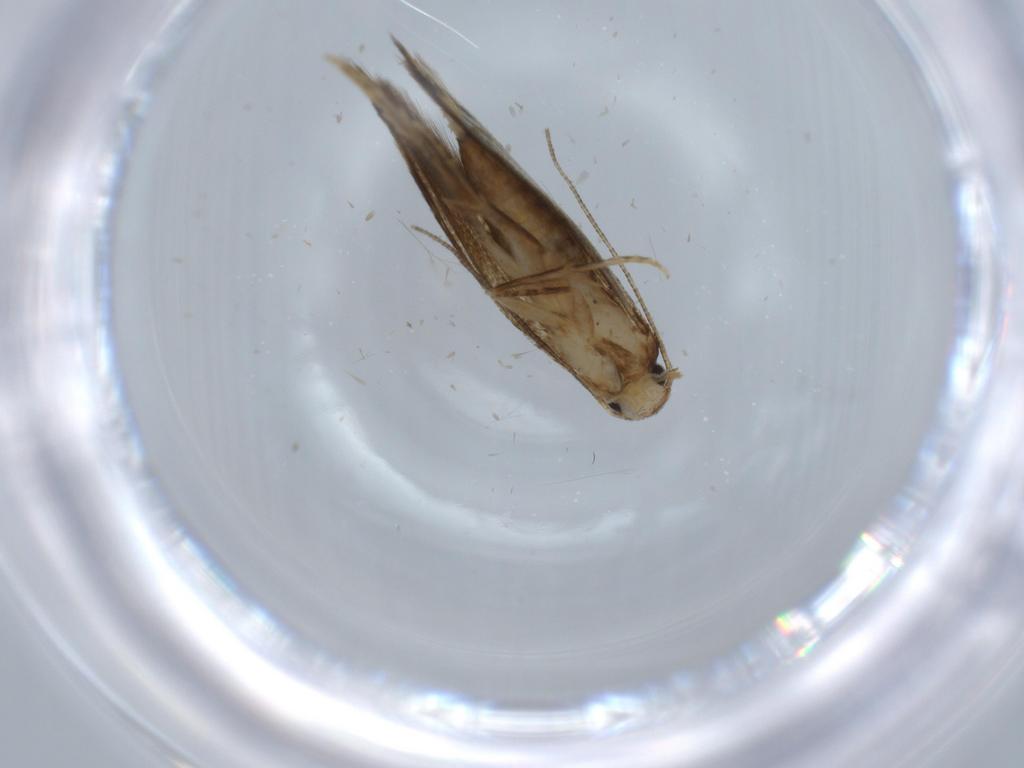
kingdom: Animalia
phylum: Arthropoda
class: Insecta
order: Lepidoptera
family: Tineidae
